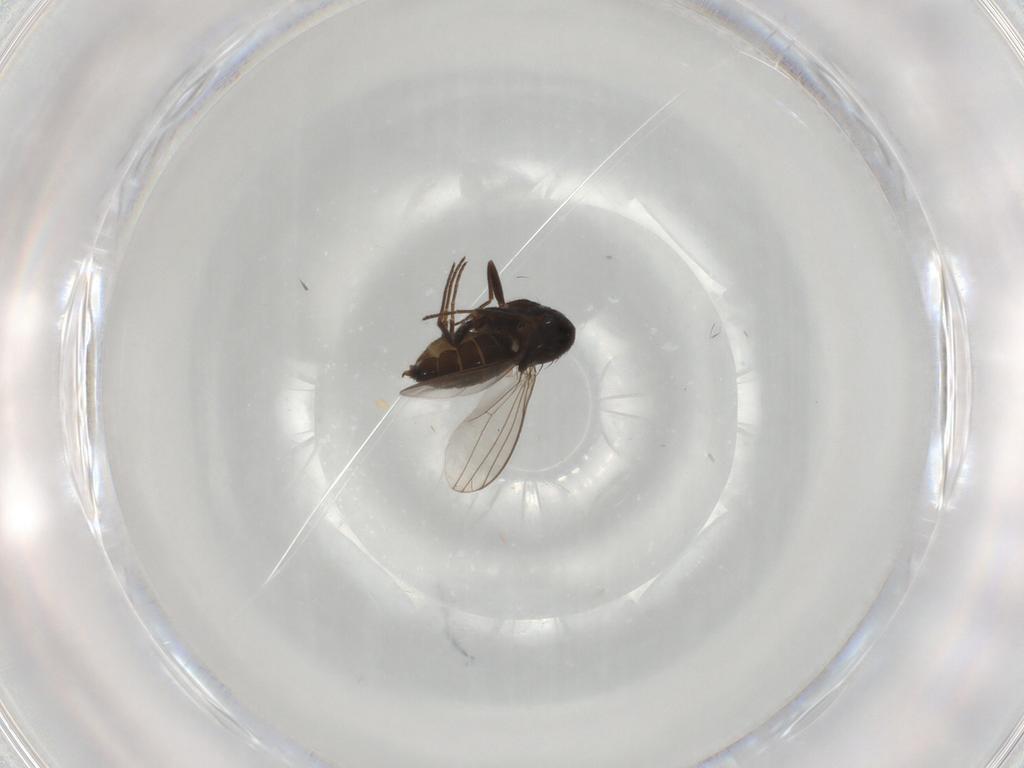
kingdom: Animalia
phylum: Arthropoda
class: Insecta
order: Diptera
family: Dolichopodidae
